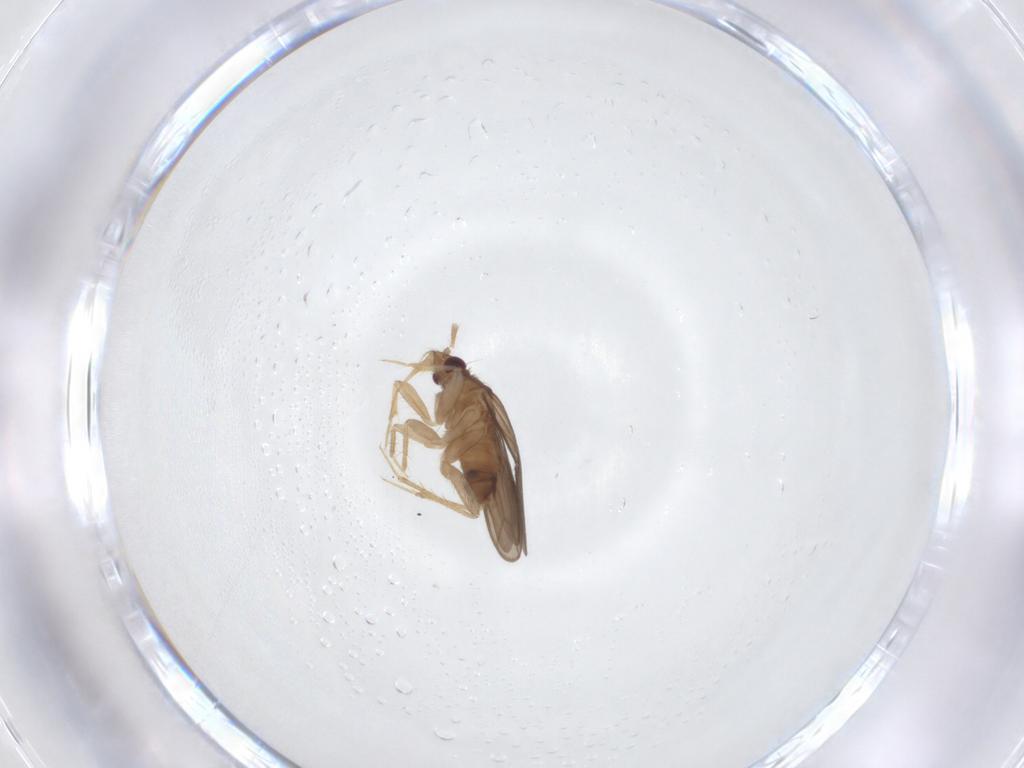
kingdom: Animalia
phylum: Arthropoda
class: Insecta
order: Hemiptera
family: Ceratocombidae
